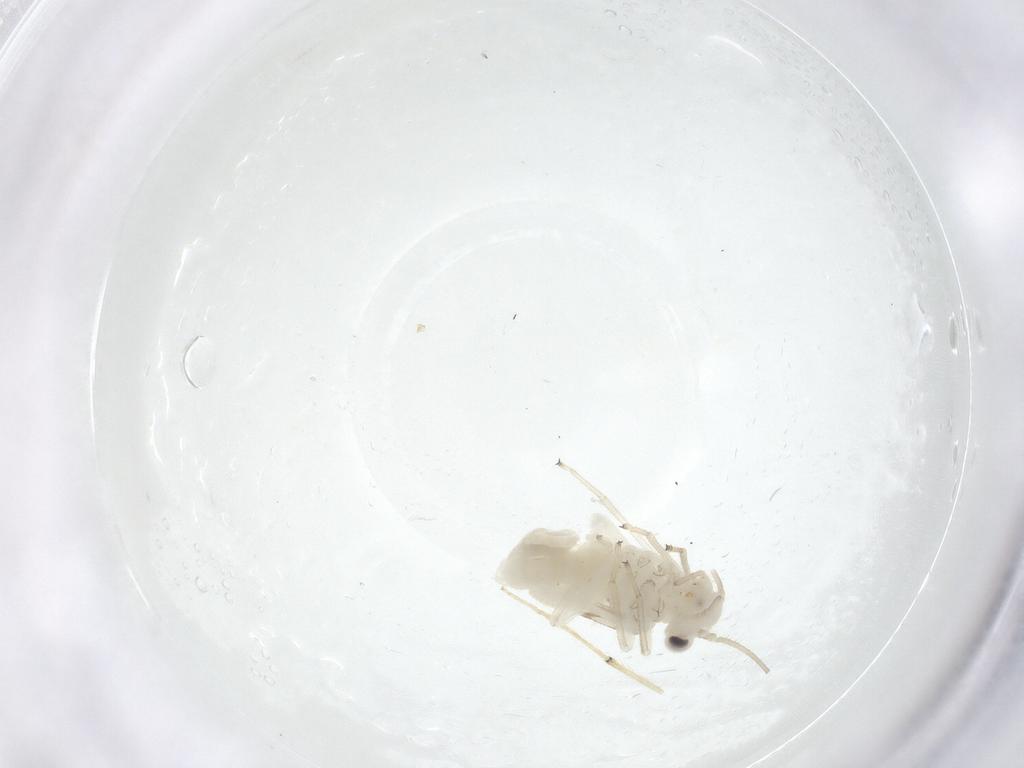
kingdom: Animalia
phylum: Arthropoda
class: Insecta
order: Psocodea
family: Caeciliusidae
